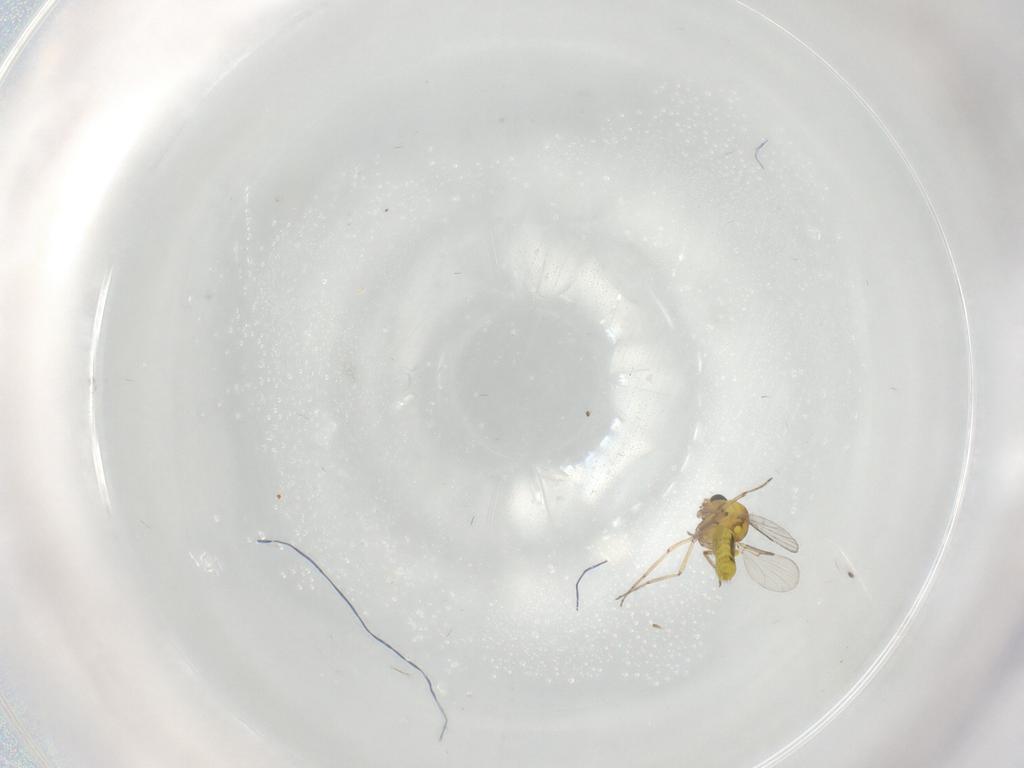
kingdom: Animalia
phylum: Arthropoda
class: Insecta
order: Diptera
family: Ceratopogonidae
